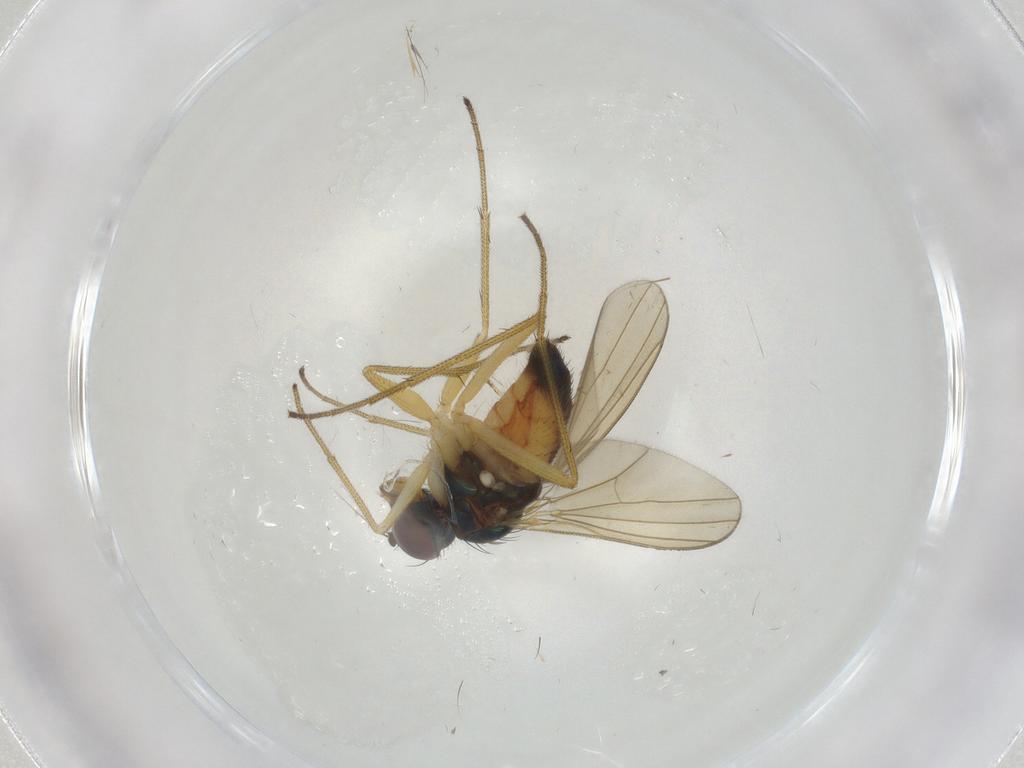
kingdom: Animalia
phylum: Arthropoda
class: Insecta
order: Diptera
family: Dolichopodidae
